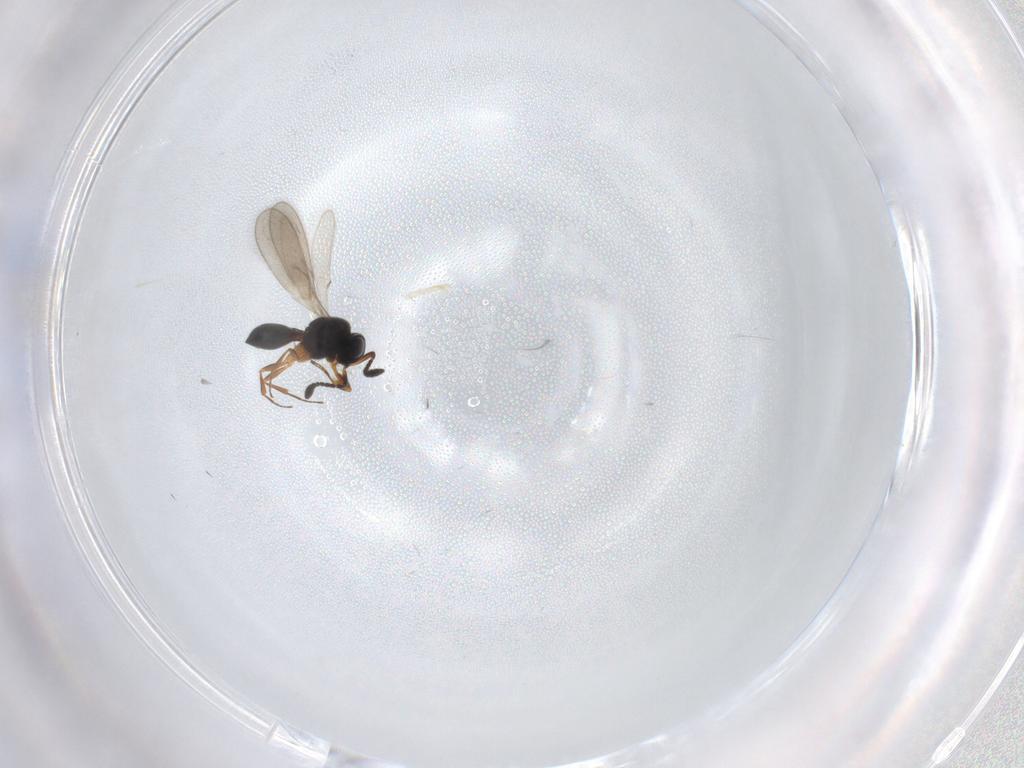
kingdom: Animalia
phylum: Arthropoda
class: Insecta
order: Hymenoptera
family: Scelionidae
